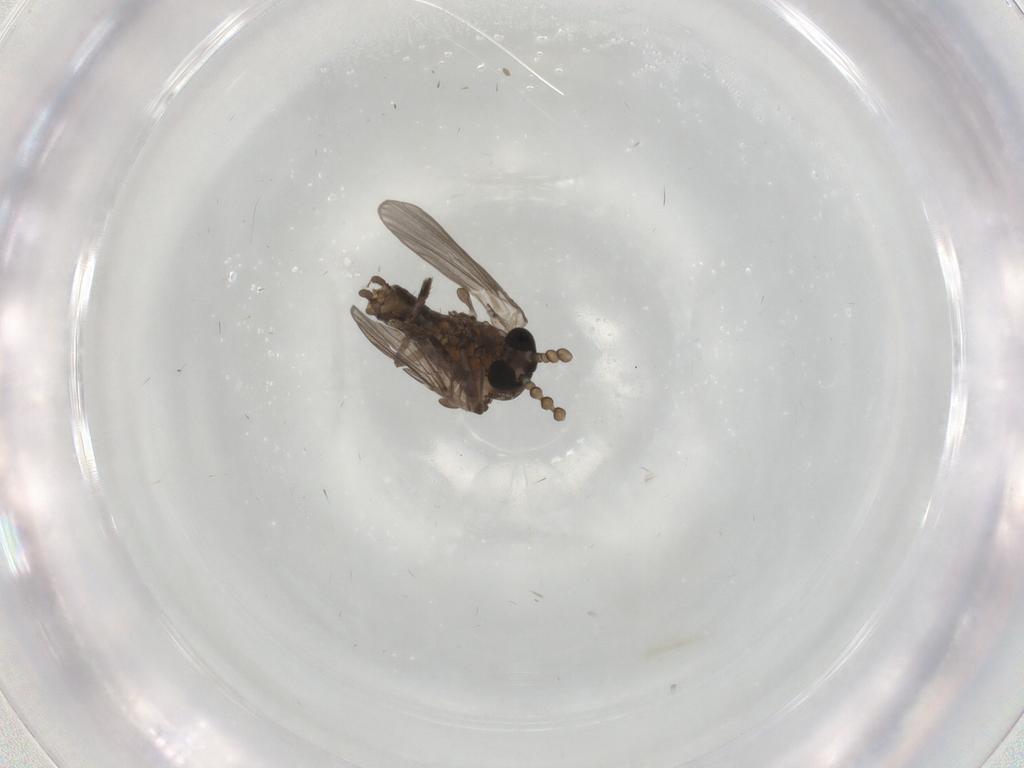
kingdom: Animalia
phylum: Arthropoda
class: Insecta
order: Diptera
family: Psychodidae
